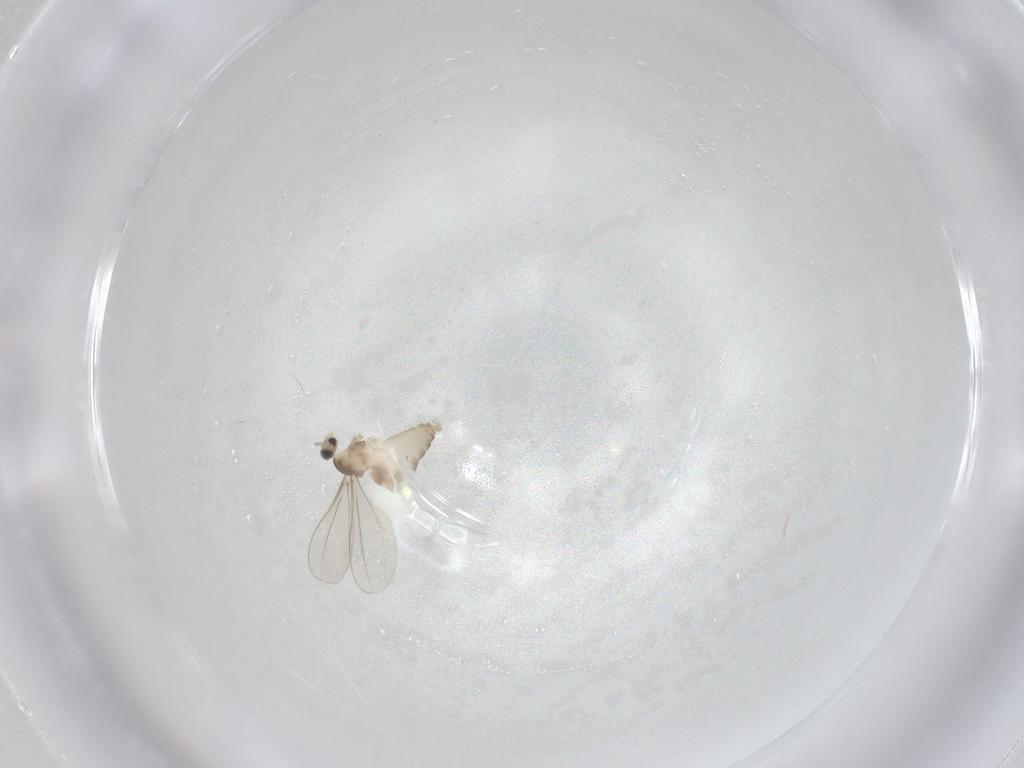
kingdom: Animalia
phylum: Arthropoda
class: Insecta
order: Diptera
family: Cecidomyiidae
